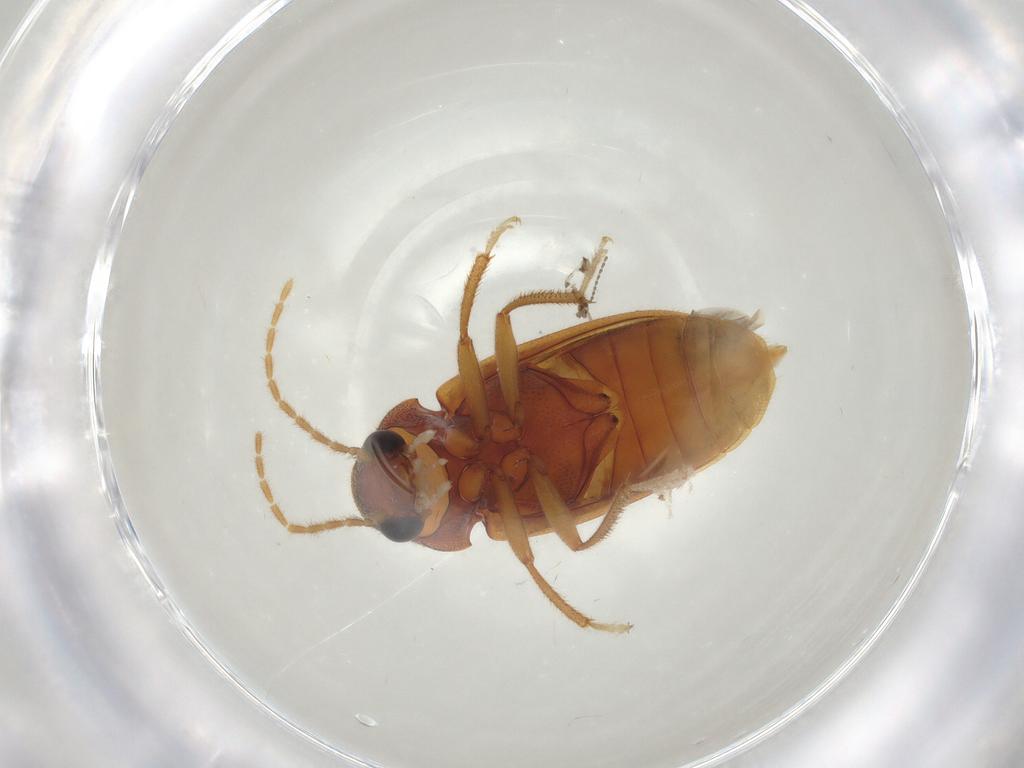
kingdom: Animalia
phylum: Arthropoda
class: Insecta
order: Coleoptera
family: Ptilodactylidae
